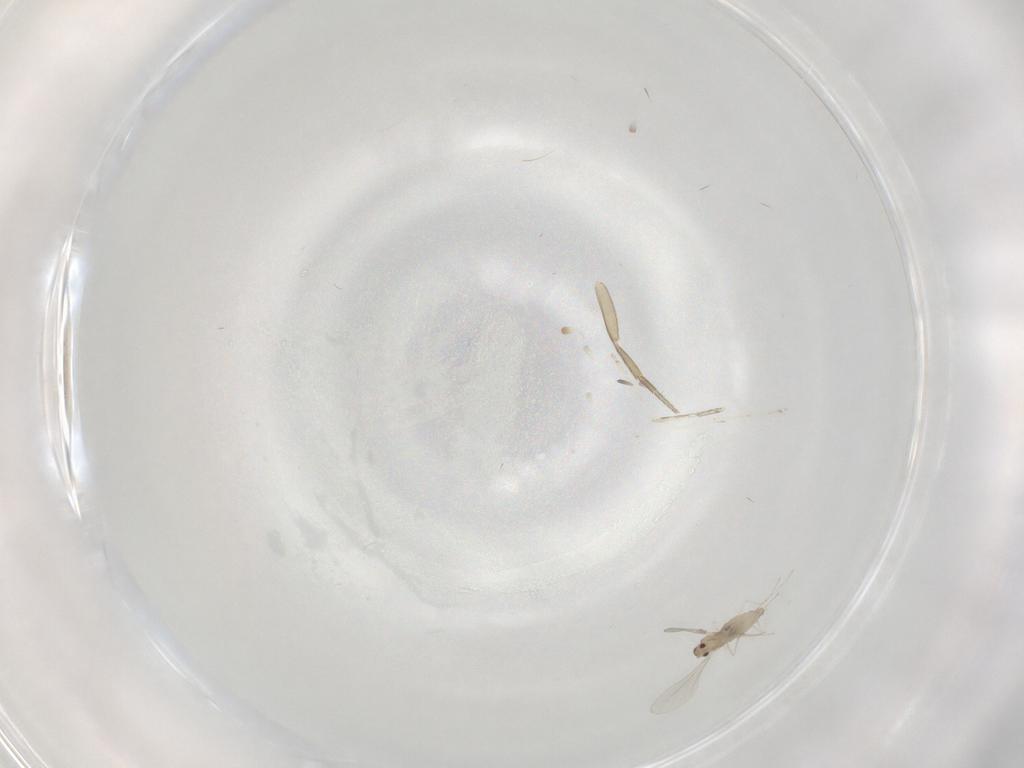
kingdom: Animalia
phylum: Arthropoda
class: Insecta
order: Diptera
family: Cecidomyiidae
